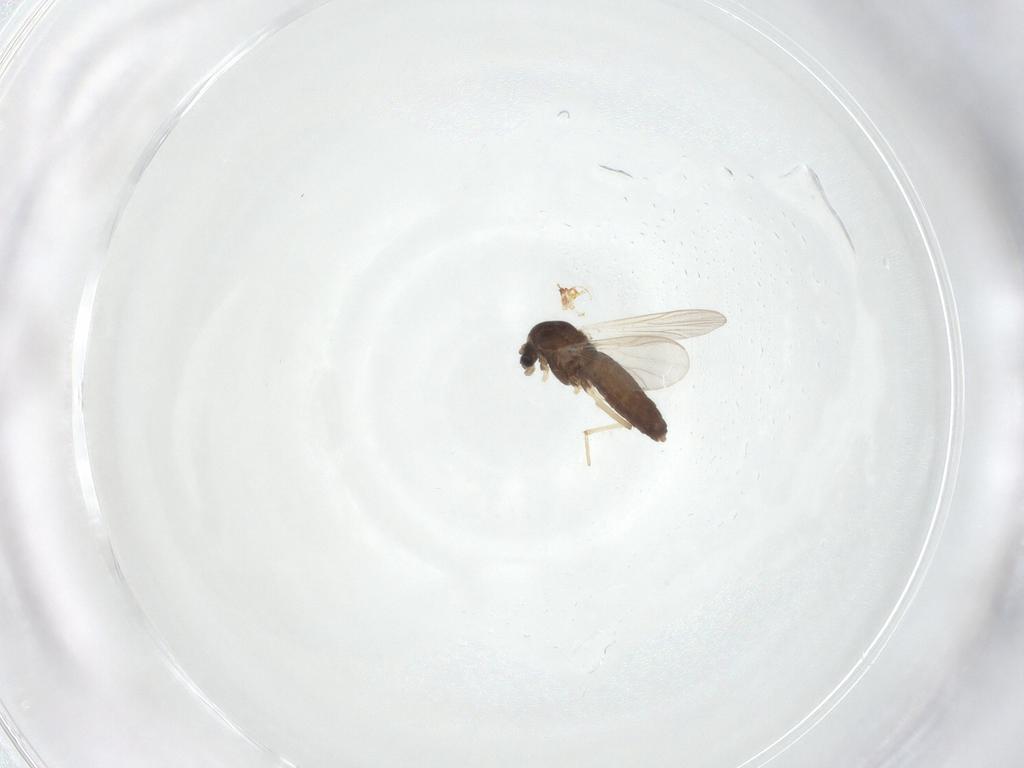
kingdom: Animalia
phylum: Arthropoda
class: Insecta
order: Diptera
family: Chironomidae
